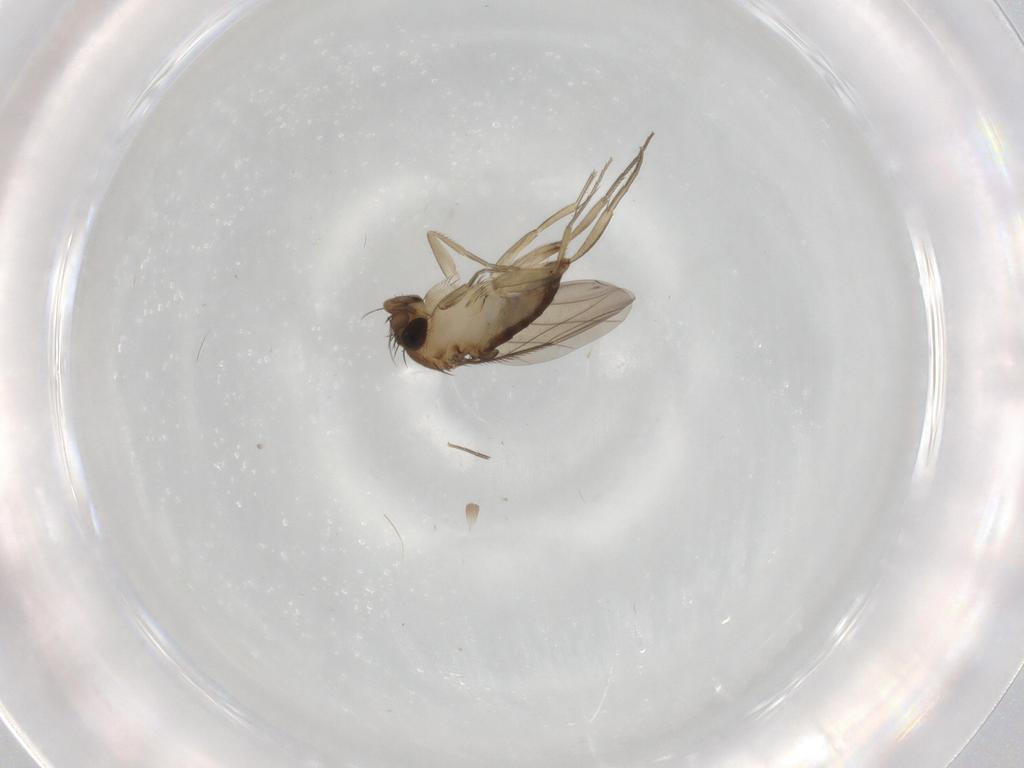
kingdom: Animalia
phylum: Arthropoda
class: Insecta
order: Diptera
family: Phoridae
